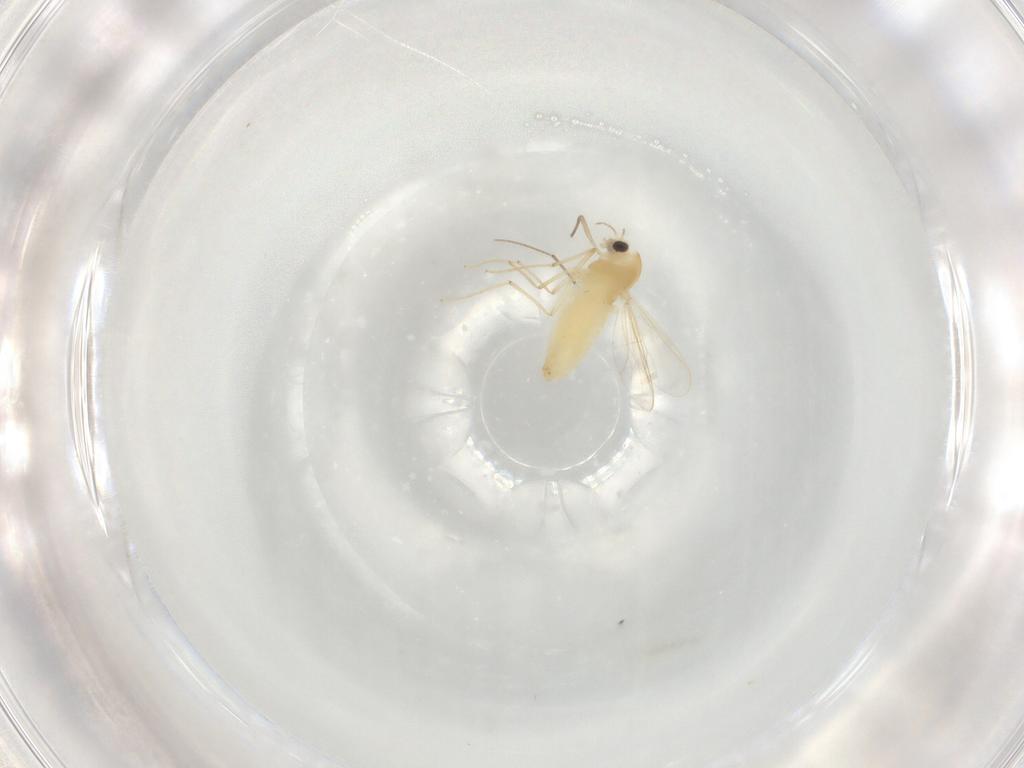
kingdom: Animalia
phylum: Arthropoda
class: Insecta
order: Diptera
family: Chironomidae
